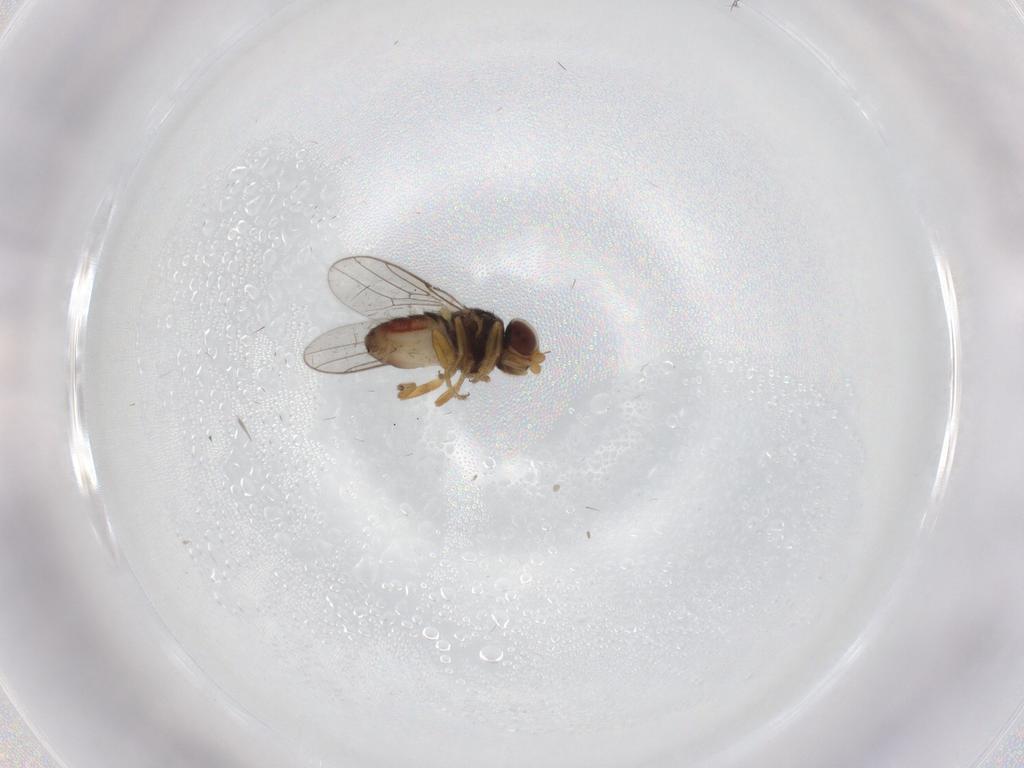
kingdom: Animalia
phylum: Arthropoda
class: Insecta
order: Diptera
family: Chloropidae
